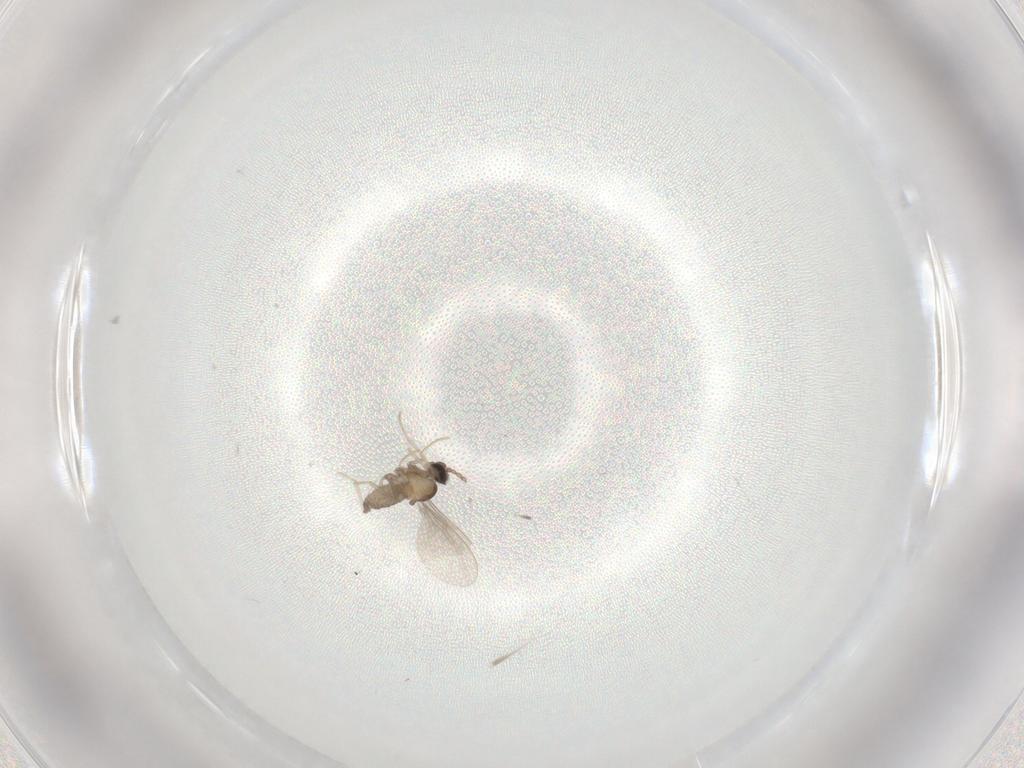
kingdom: Animalia
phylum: Arthropoda
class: Insecta
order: Diptera
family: Cecidomyiidae
